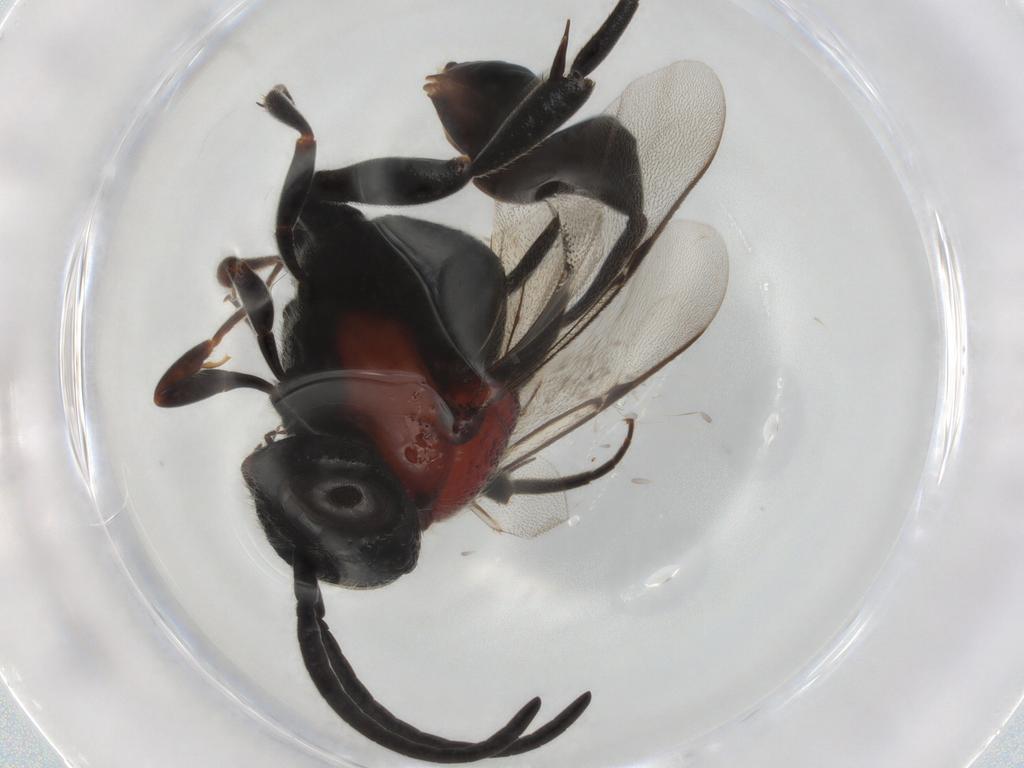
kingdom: Animalia
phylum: Arthropoda
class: Insecta
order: Hymenoptera
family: Evaniidae
